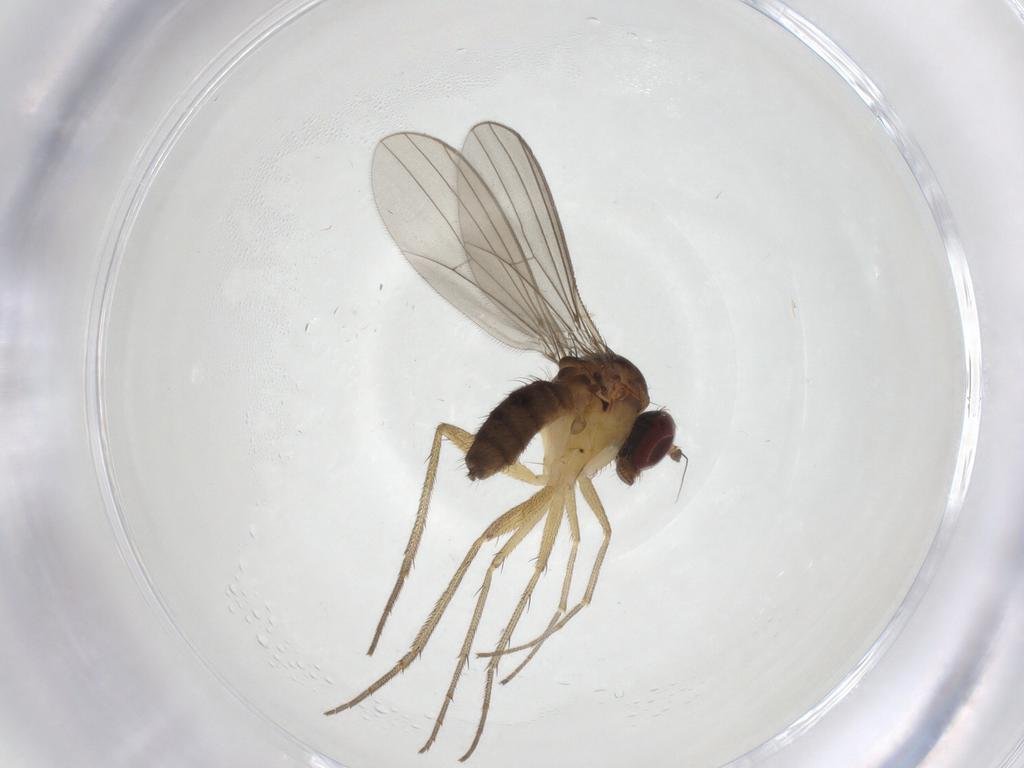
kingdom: Animalia
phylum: Arthropoda
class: Insecta
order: Diptera
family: Dolichopodidae
